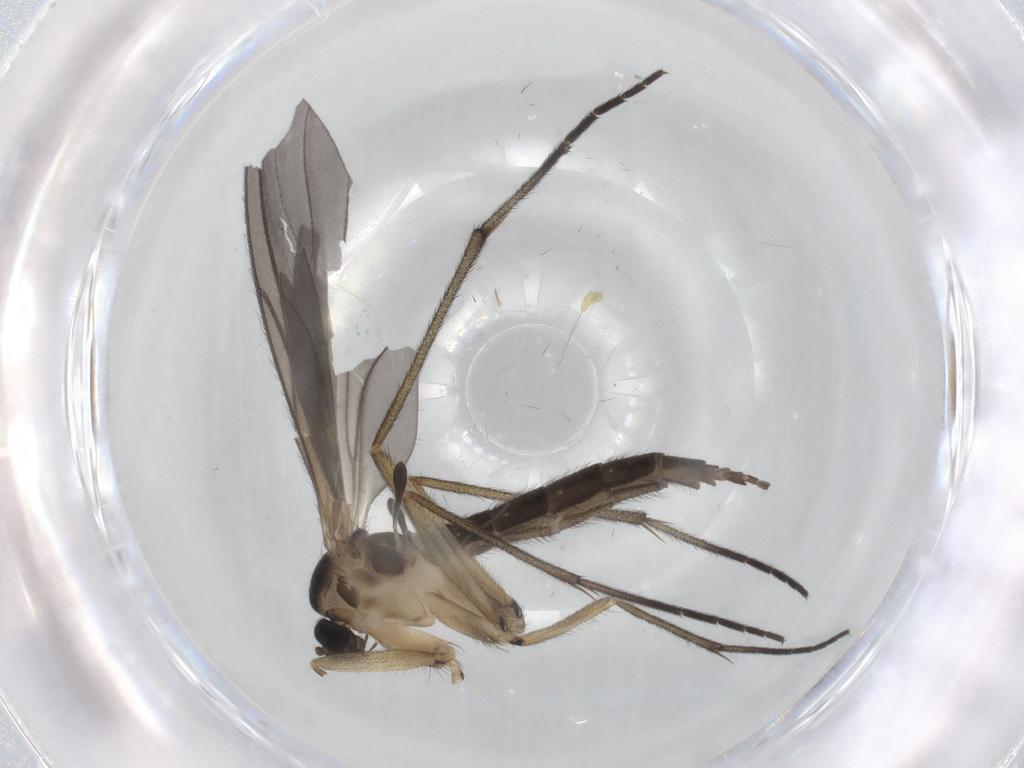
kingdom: Animalia
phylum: Arthropoda
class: Insecta
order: Diptera
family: Sciaridae
